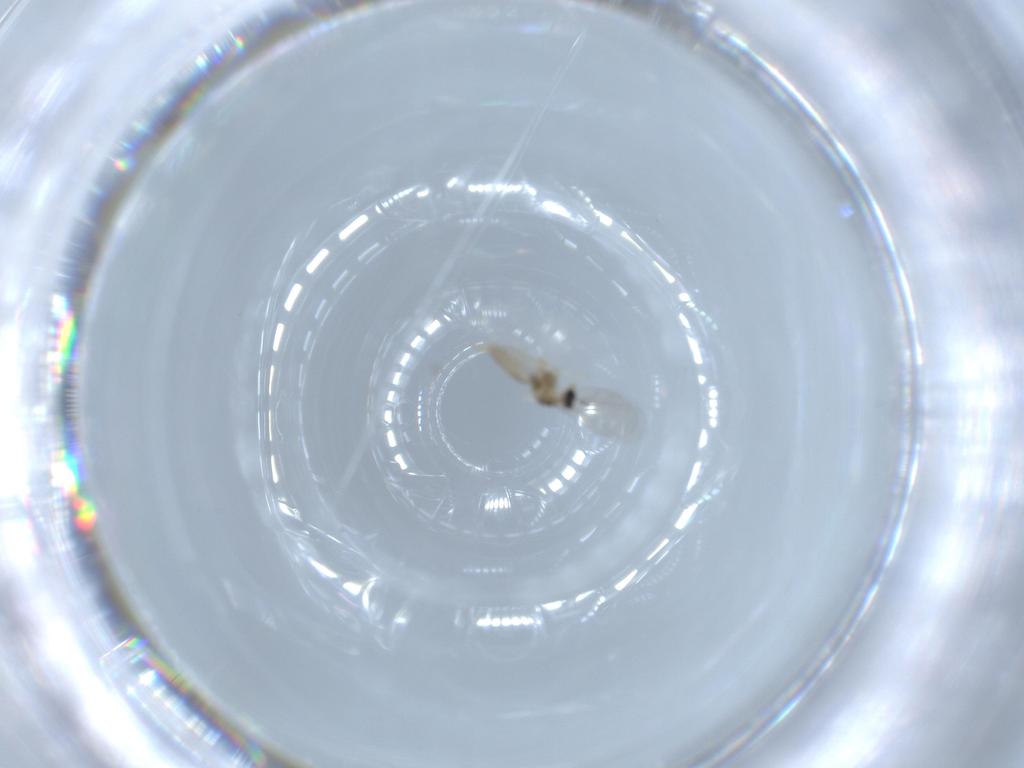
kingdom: Animalia
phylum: Arthropoda
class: Insecta
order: Diptera
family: Cecidomyiidae
